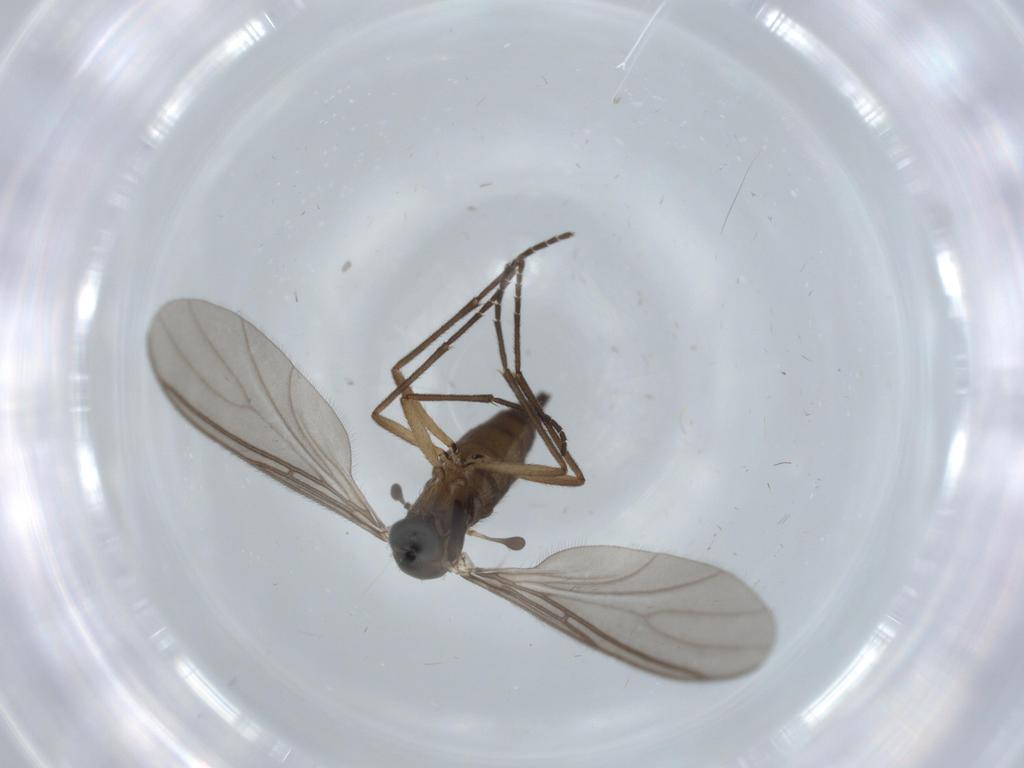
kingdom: Animalia
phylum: Arthropoda
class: Insecta
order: Diptera
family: Sciaridae
